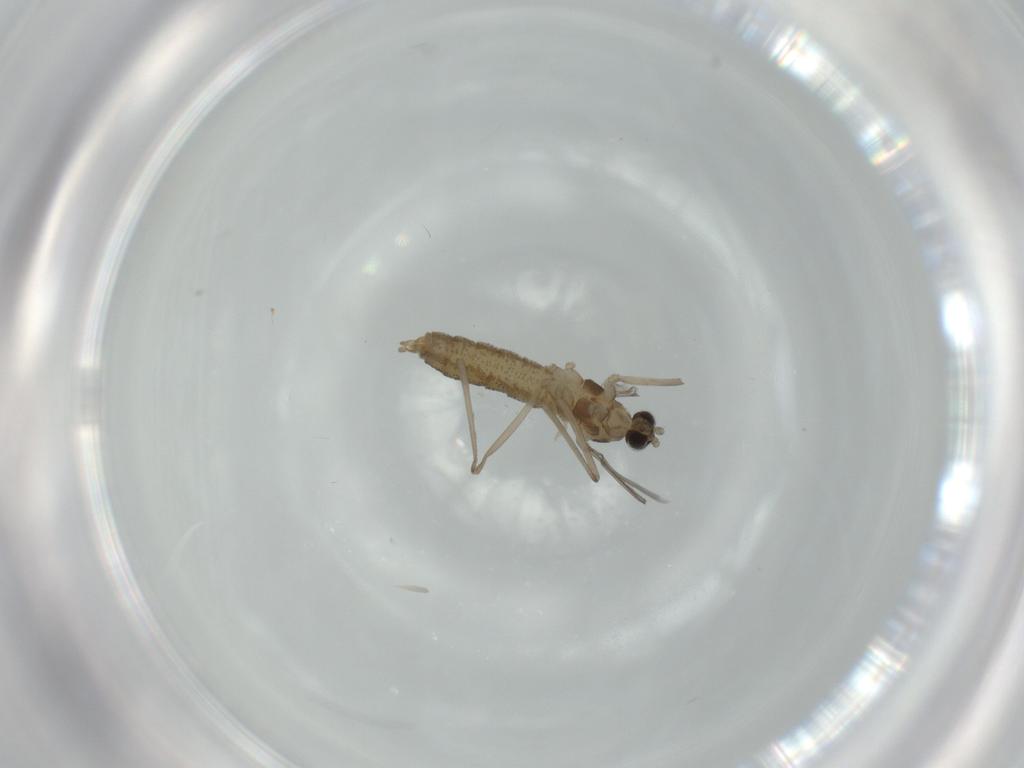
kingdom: Animalia
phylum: Arthropoda
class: Insecta
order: Diptera
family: Cecidomyiidae
